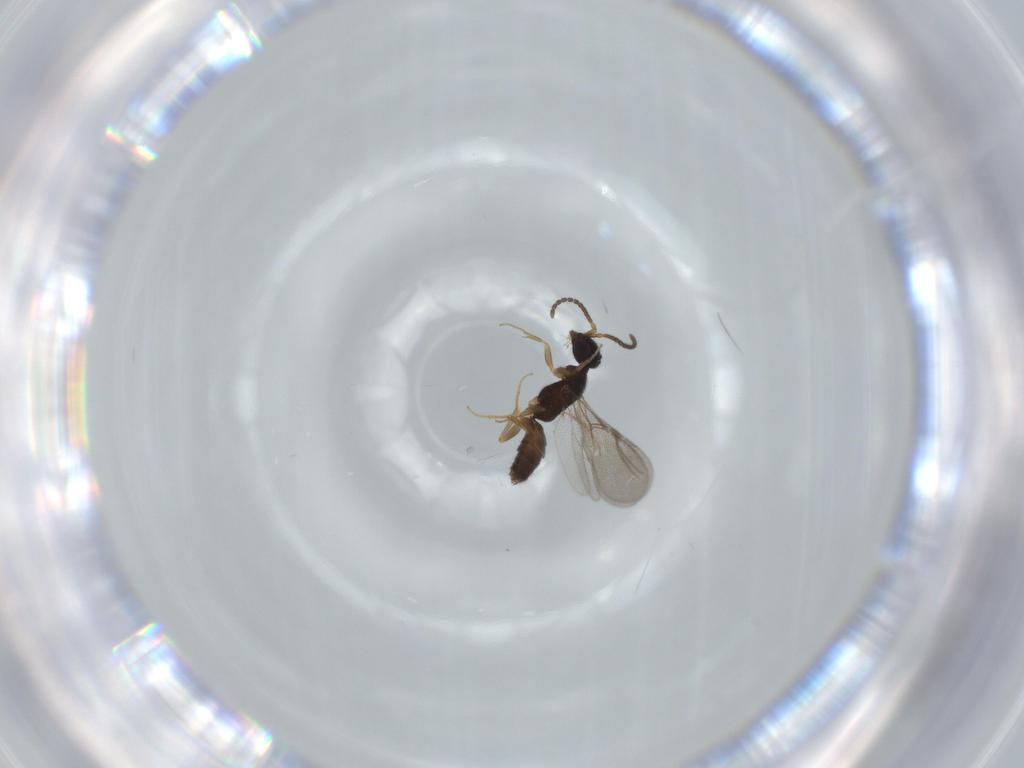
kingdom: Animalia
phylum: Arthropoda
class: Insecta
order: Hymenoptera
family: Bethylidae
